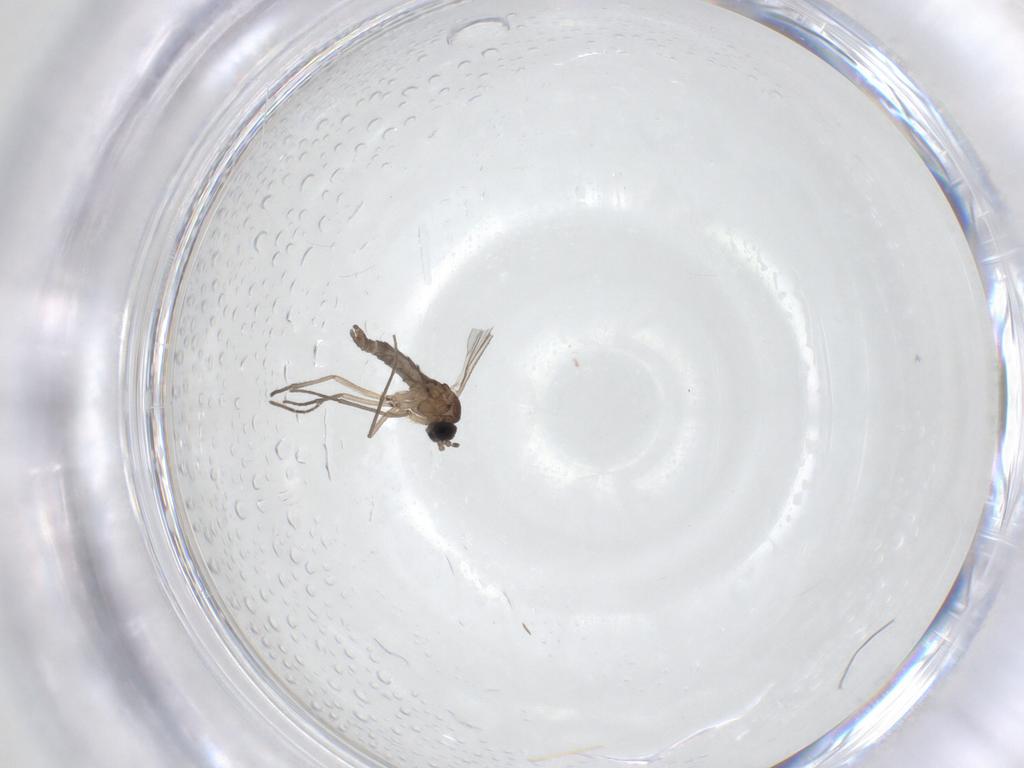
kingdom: Animalia
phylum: Arthropoda
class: Insecta
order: Diptera
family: Sciaridae
